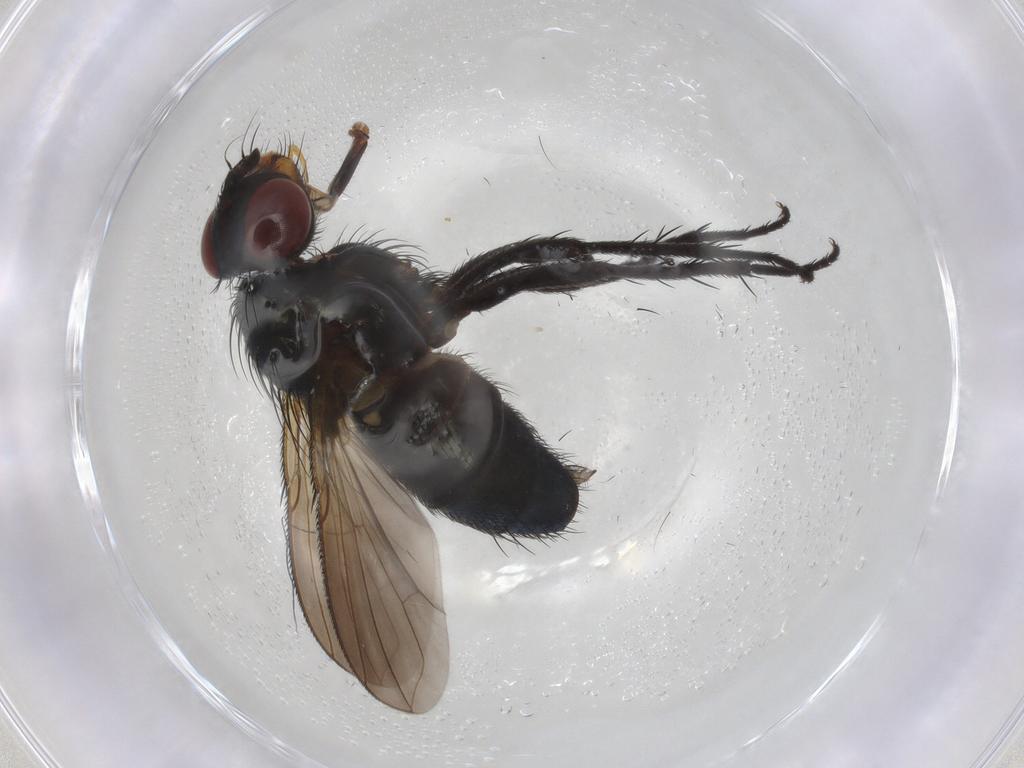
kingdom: Animalia
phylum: Arthropoda
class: Insecta
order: Diptera
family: Calliphoridae
